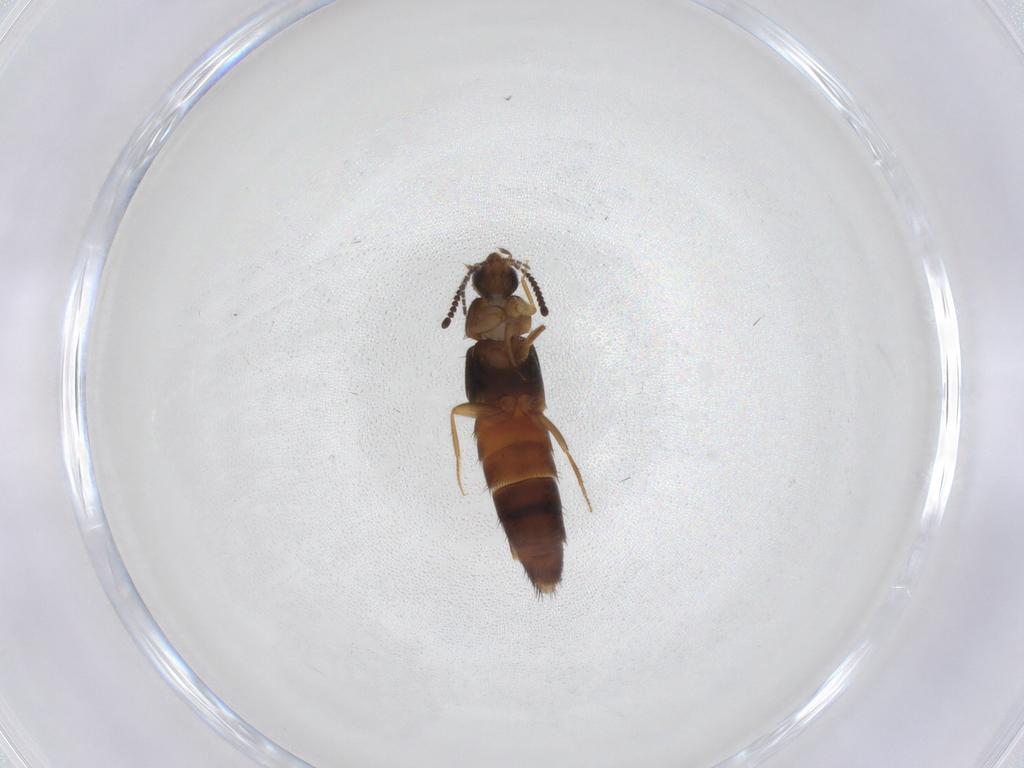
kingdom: Animalia
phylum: Arthropoda
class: Insecta
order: Coleoptera
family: Staphylinidae
